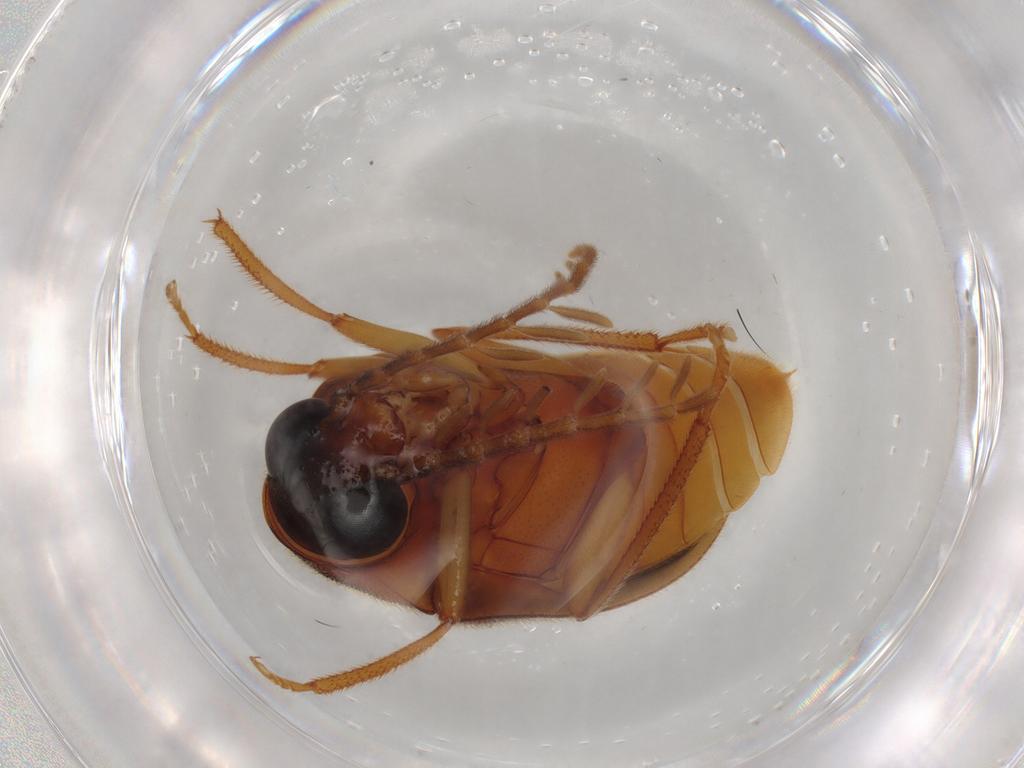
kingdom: Animalia
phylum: Arthropoda
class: Insecta
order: Coleoptera
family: Ptilodactylidae
